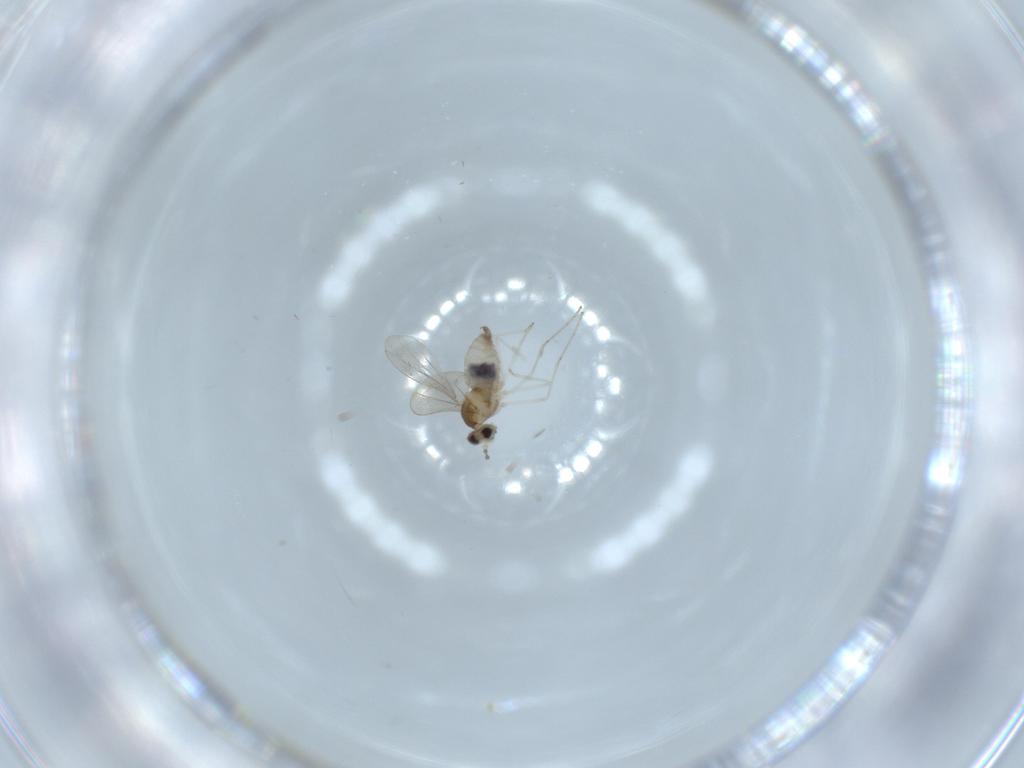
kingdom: Animalia
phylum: Arthropoda
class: Insecta
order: Diptera
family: Cecidomyiidae
